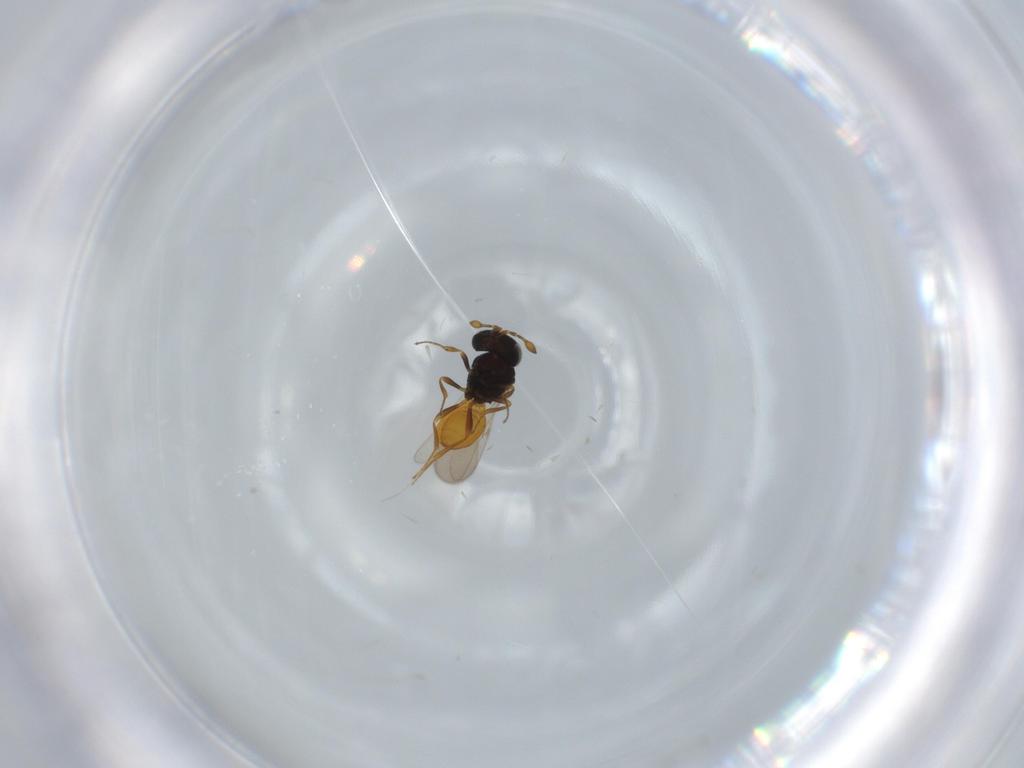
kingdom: Animalia
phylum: Arthropoda
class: Insecta
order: Hymenoptera
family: Scelionidae
